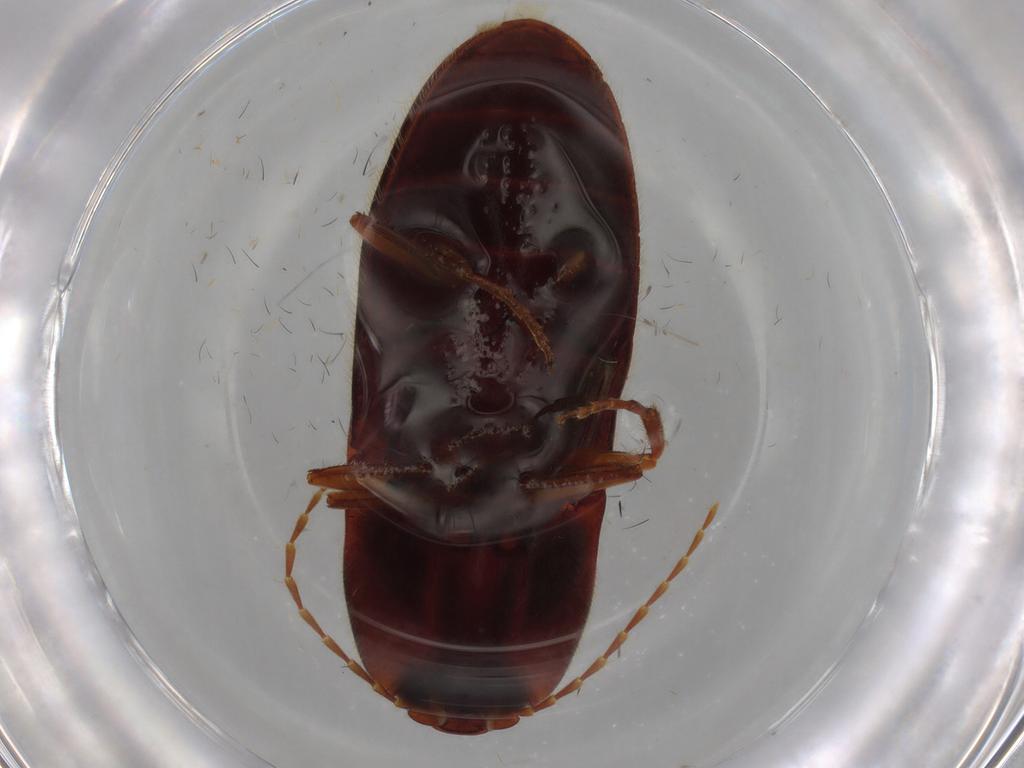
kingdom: Animalia
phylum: Arthropoda
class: Insecta
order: Coleoptera
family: Elateridae
